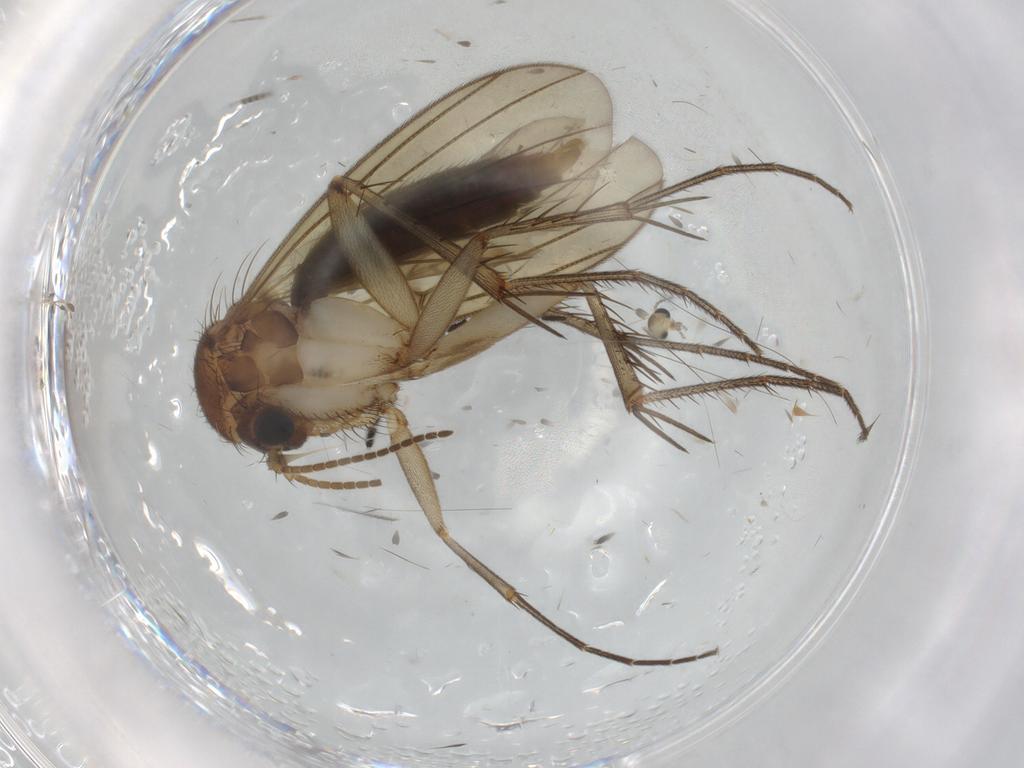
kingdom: Animalia
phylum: Arthropoda
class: Insecta
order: Diptera
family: Mycetophilidae
